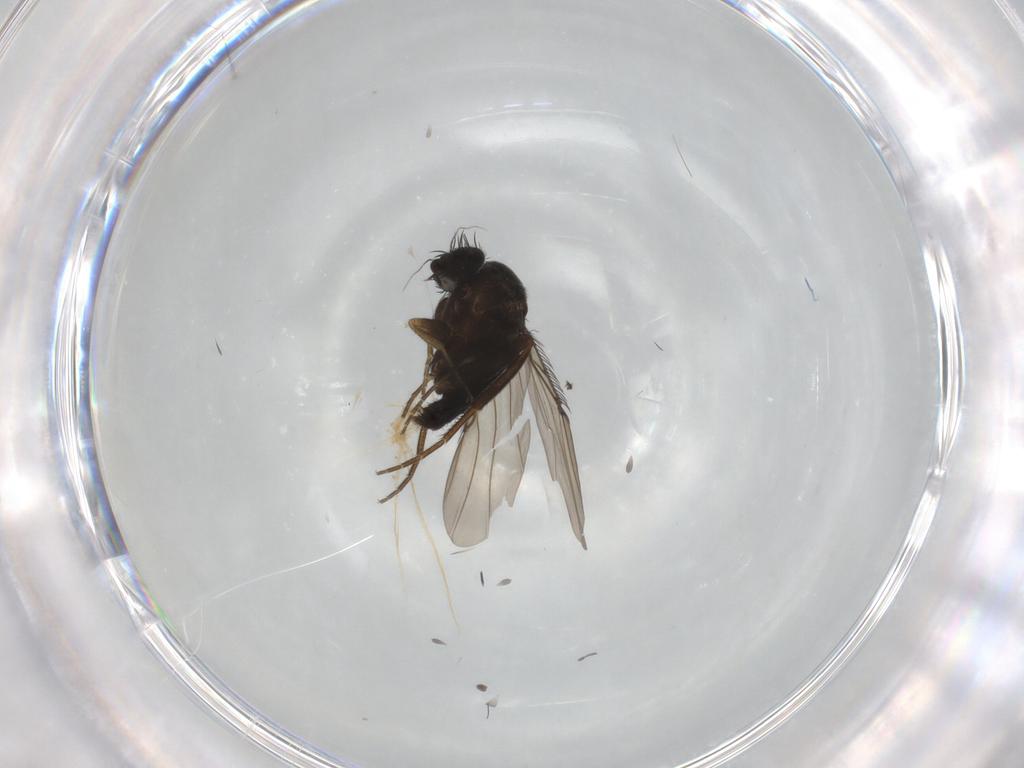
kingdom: Animalia
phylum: Arthropoda
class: Insecta
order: Diptera
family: Phoridae
